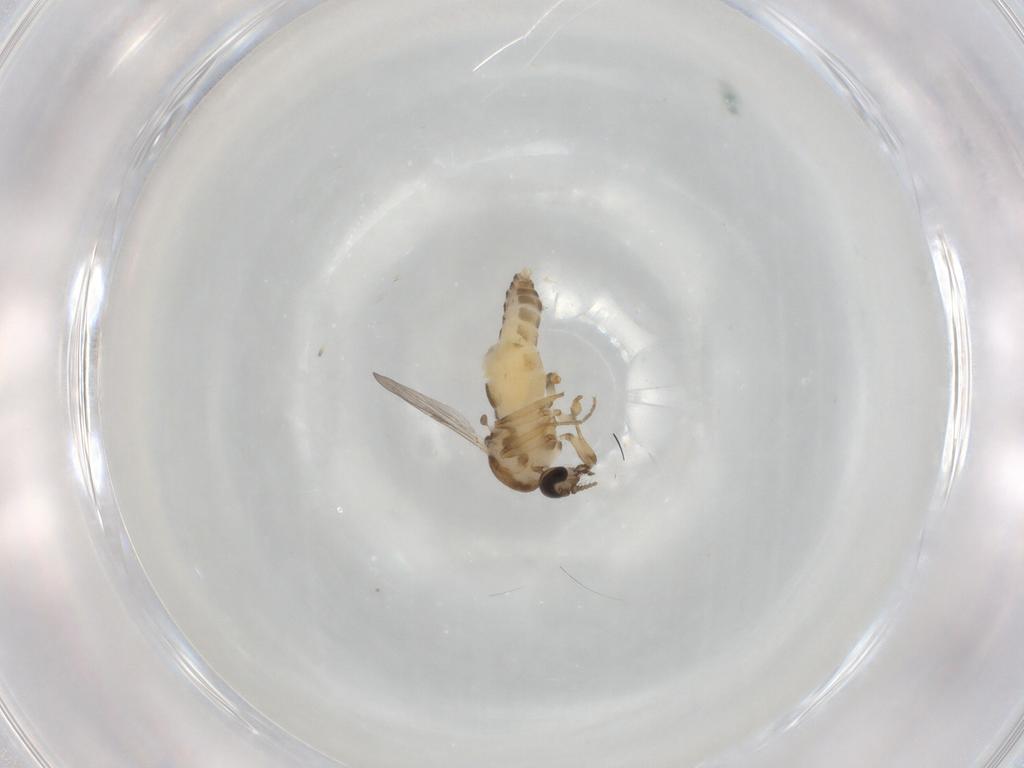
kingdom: Animalia
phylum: Arthropoda
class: Insecta
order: Diptera
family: Ceratopogonidae
